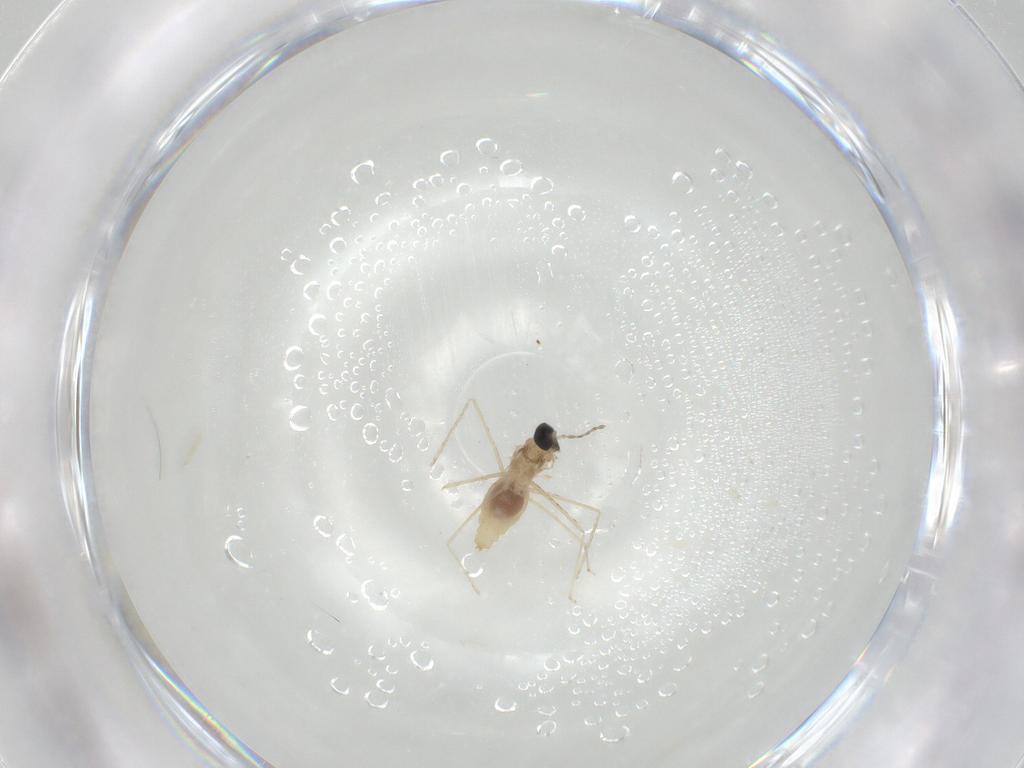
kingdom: Animalia
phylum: Arthropoda
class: Insecta
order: Diptera
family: Cecidomyiidae
